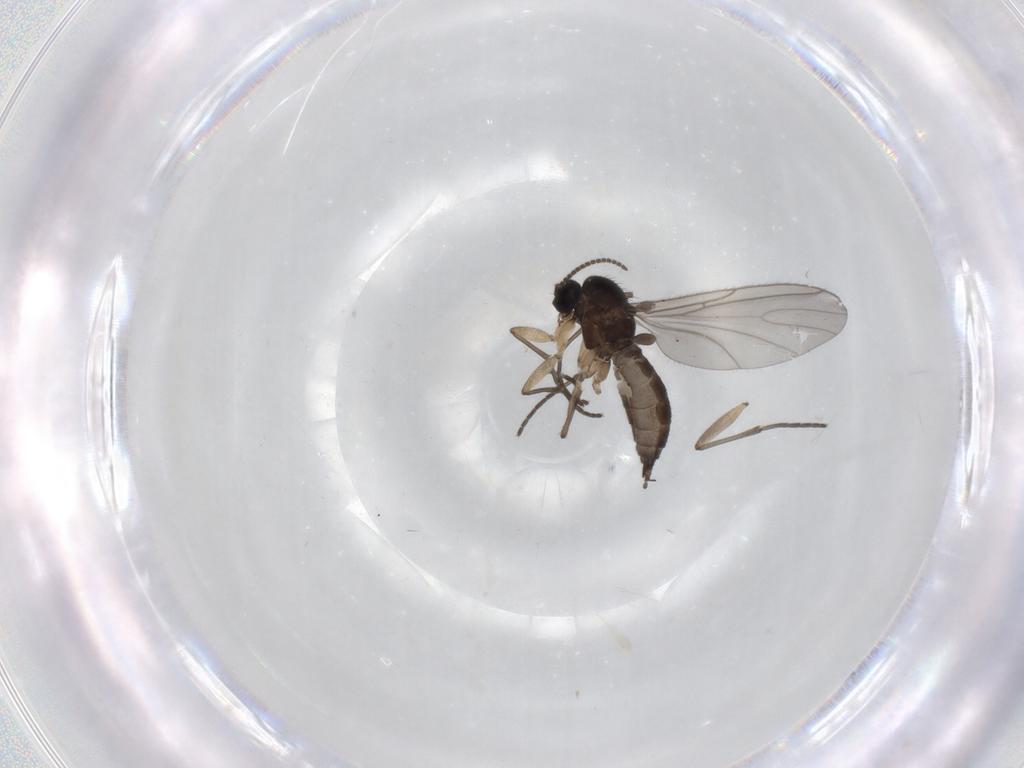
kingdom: Animalia
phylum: Arthropoda
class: Insecta
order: Diptera
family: Sciaridae
